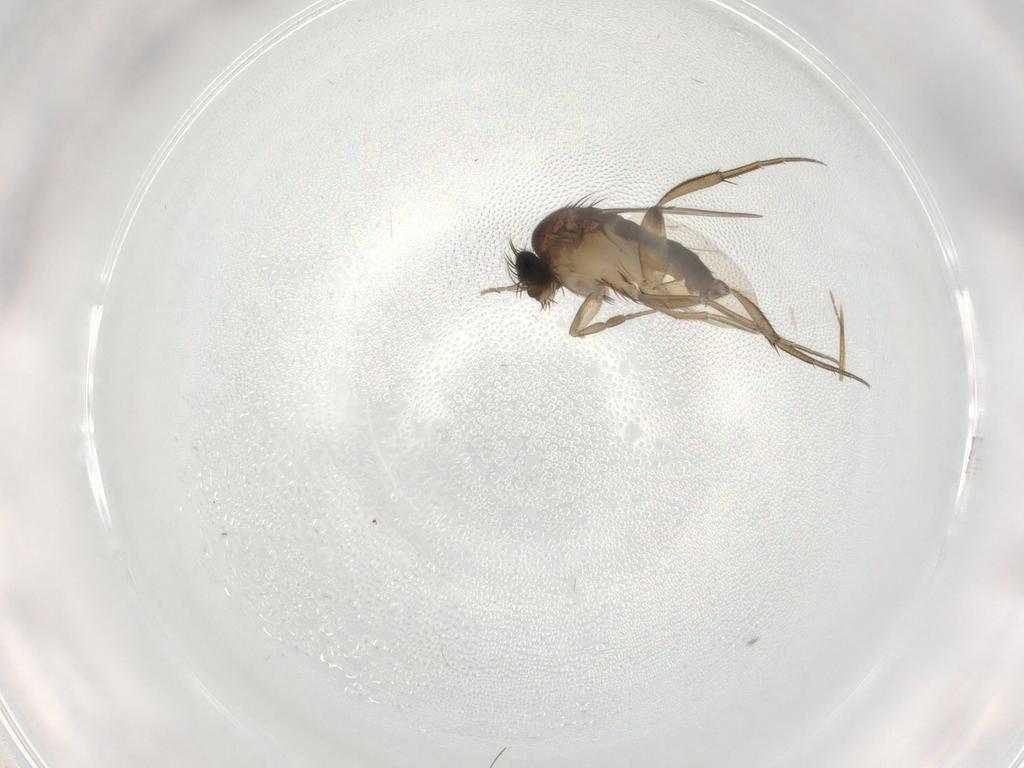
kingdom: Animalia
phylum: Arthropoda
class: Insecta
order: Diptera
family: Phoridae
